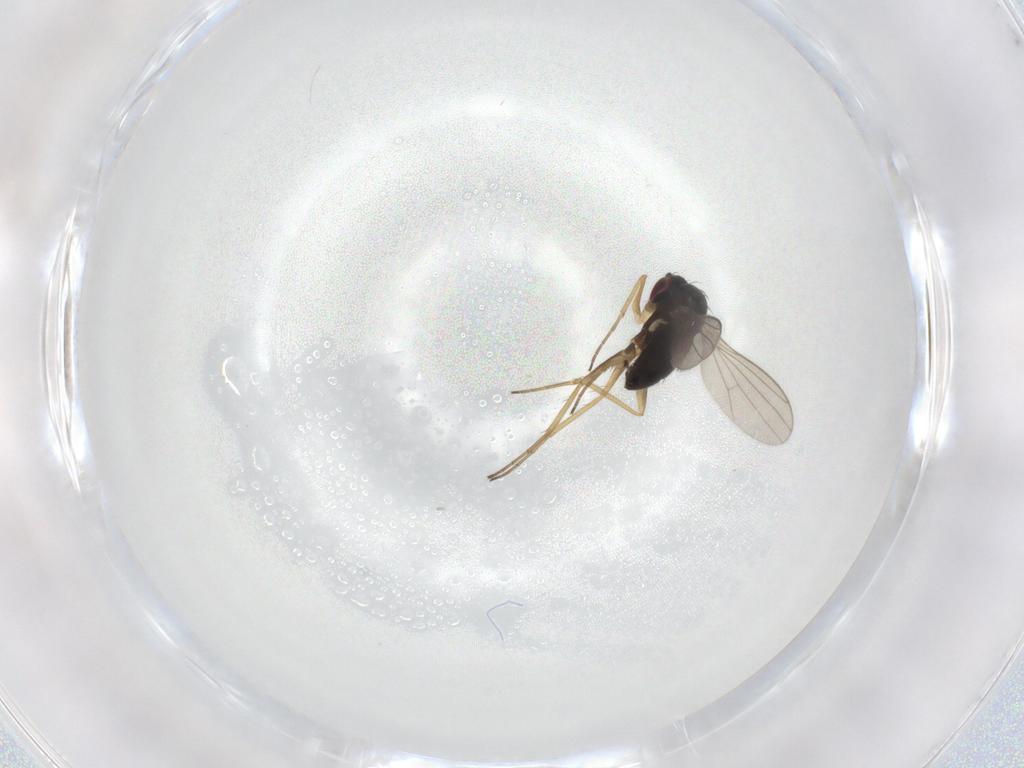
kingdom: Animalia
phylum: Arthropoda
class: Insecta
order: Diptera
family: Dolichopodidae
